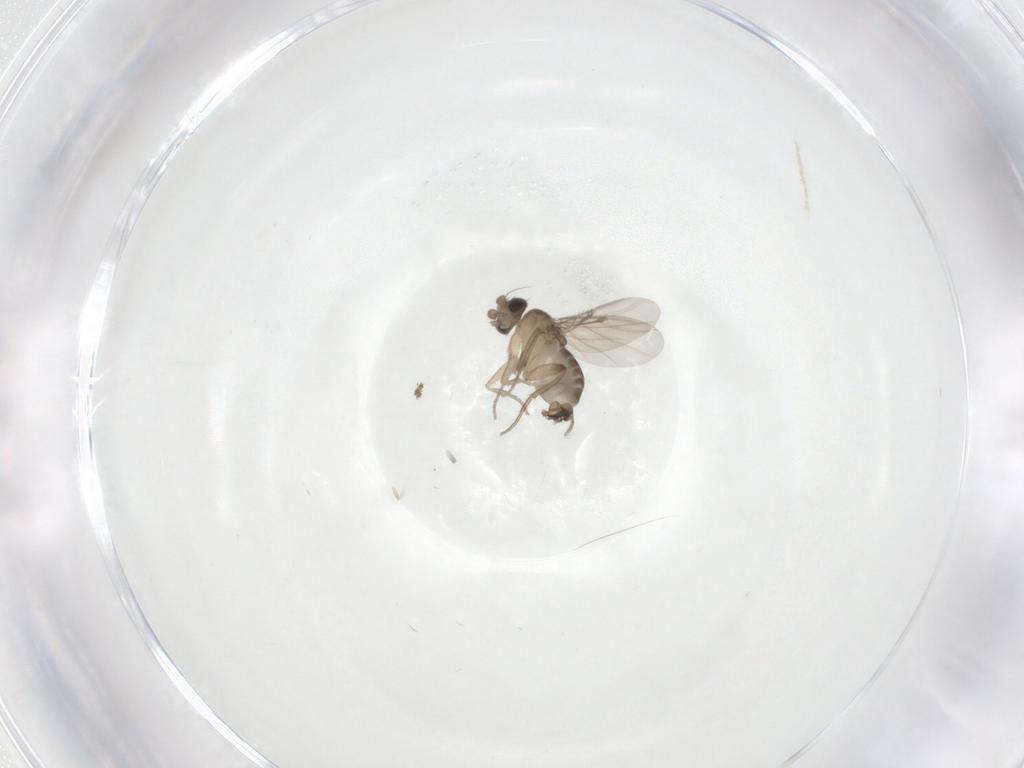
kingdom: Animalia
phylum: Arthropoda
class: Insecta
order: Diptera
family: Phoridae
